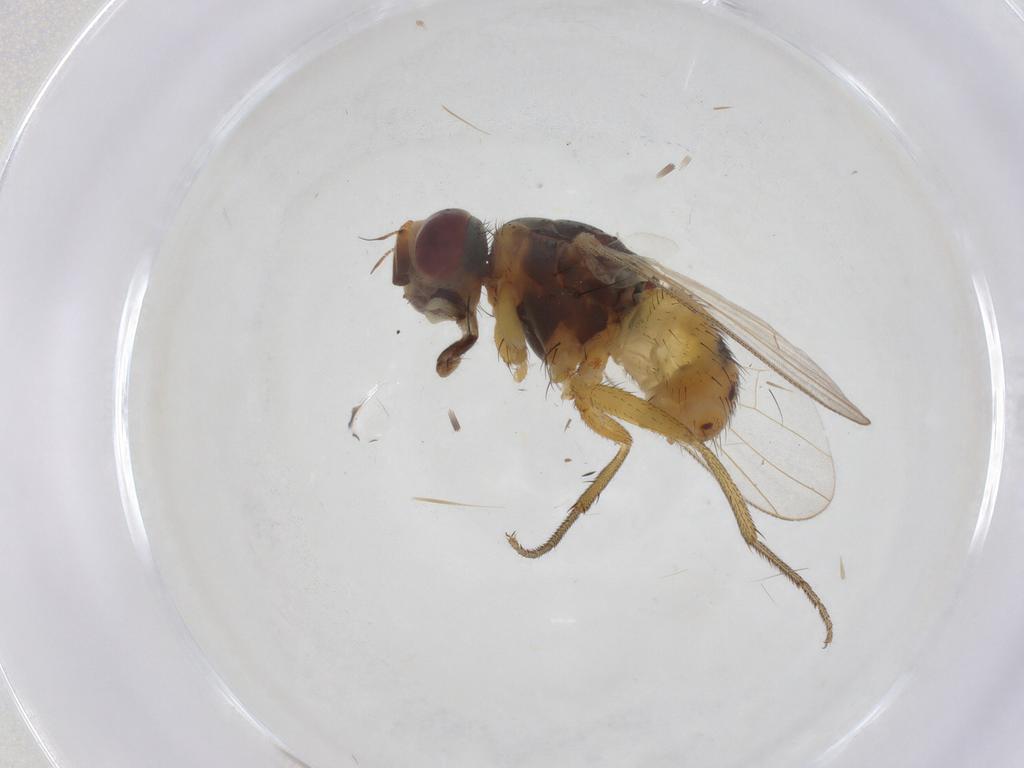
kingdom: Animalia
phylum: Arthropoda
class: Insecta
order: Diptera
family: Muscidae
